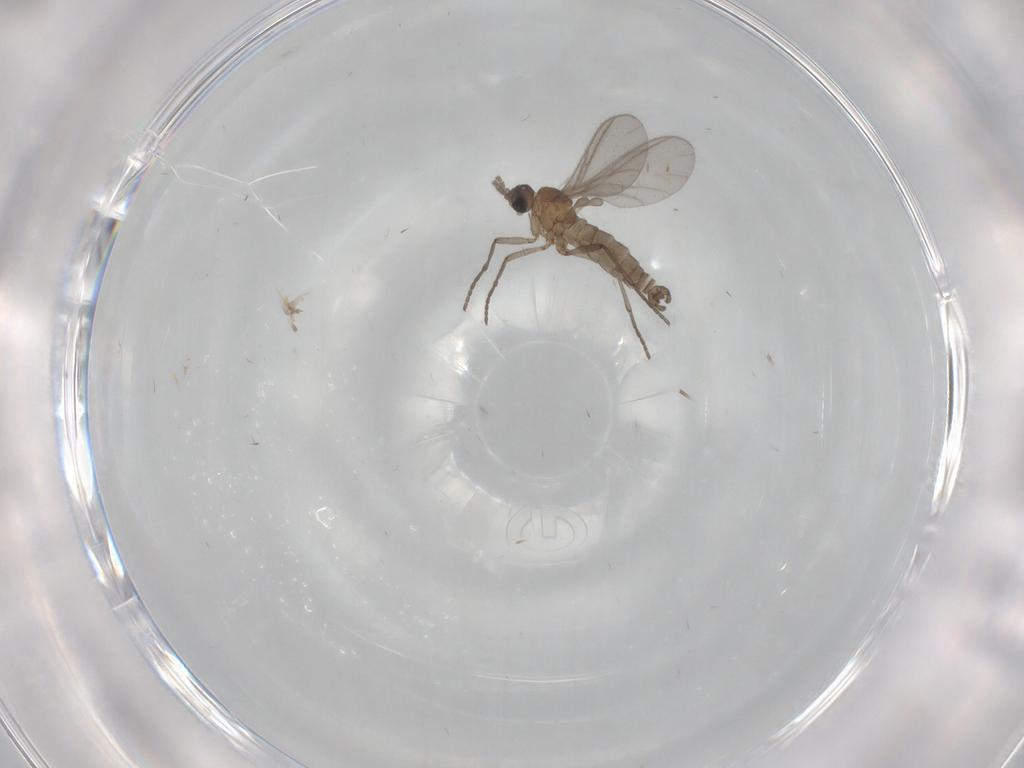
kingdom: Animalia
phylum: Arthropoda
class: Insecta
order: Diptera
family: Sciaridae
